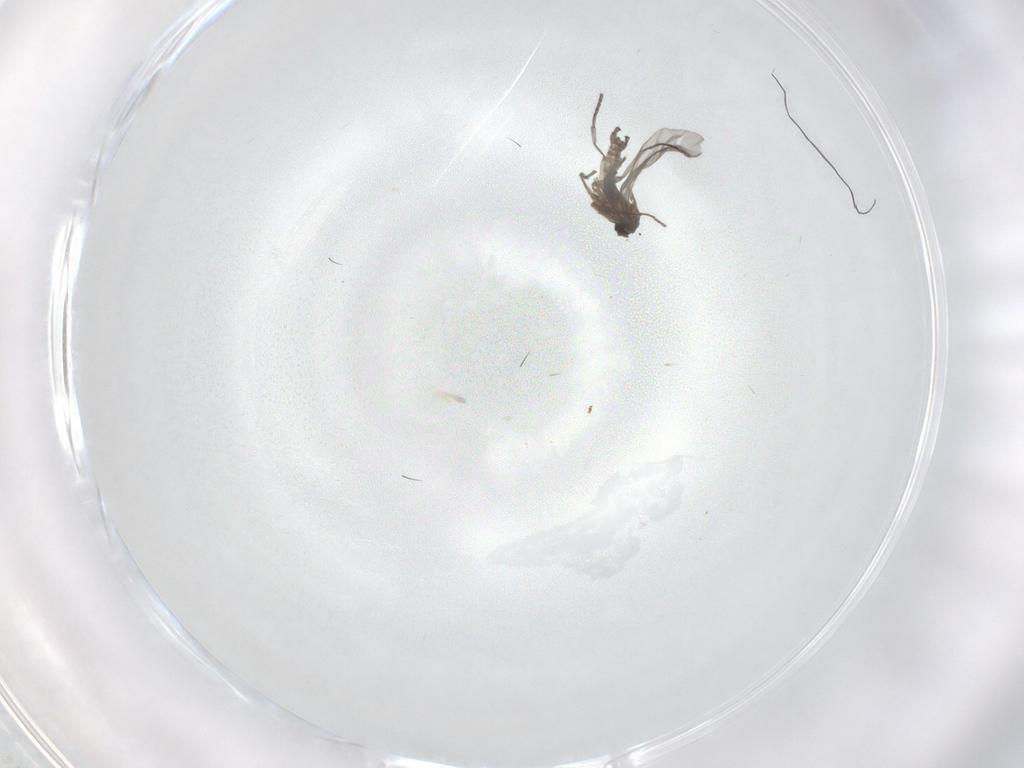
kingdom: Animalia
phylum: Arthropoda
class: Insecta
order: Diptera
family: Sciaridae
